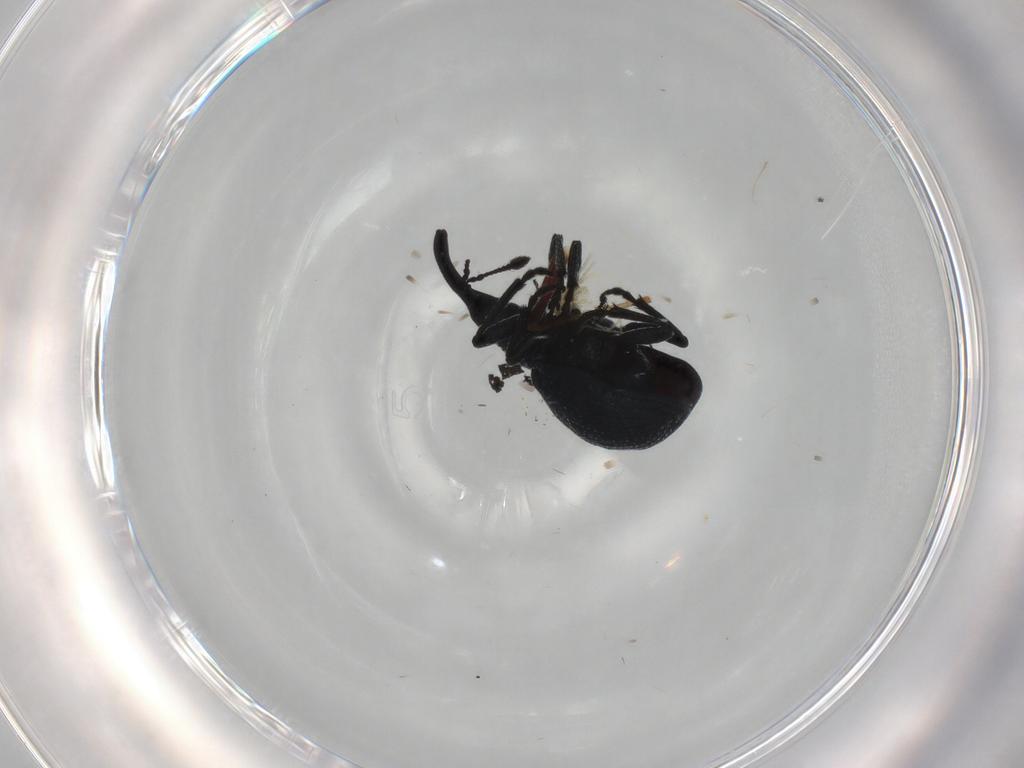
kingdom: Animalia
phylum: Arthropoda
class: Insecta
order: Coleoptera
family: Brentidae
